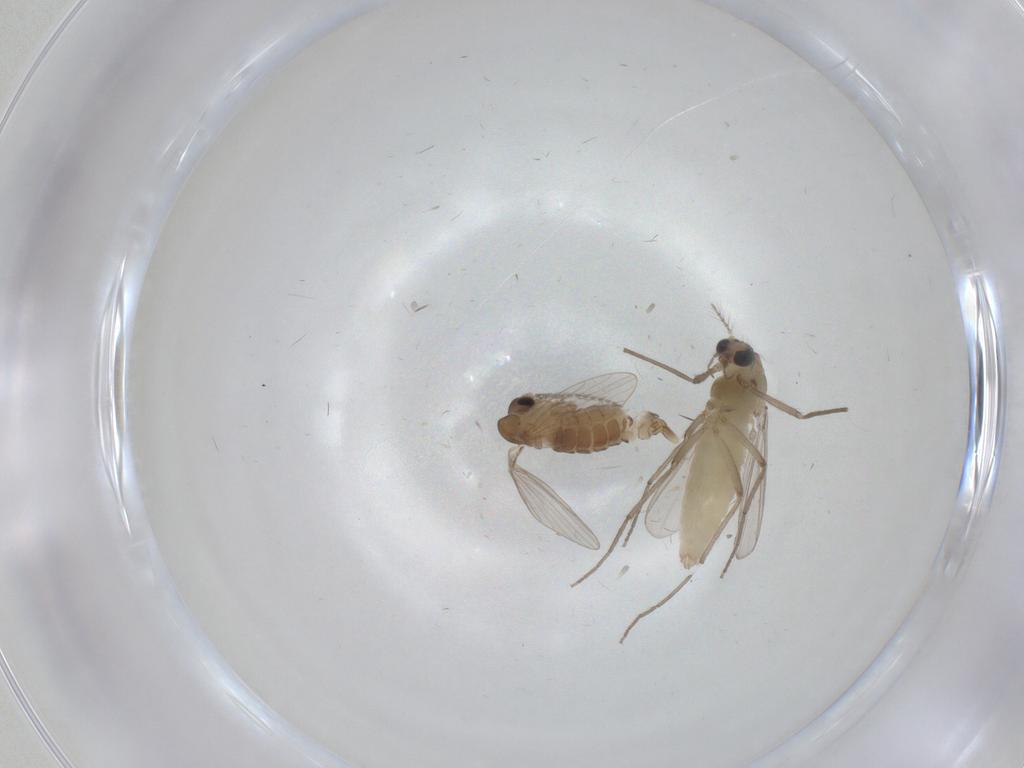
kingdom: Animalia
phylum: Arthropoda
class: Insecta
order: Diptera
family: Chironomidae
